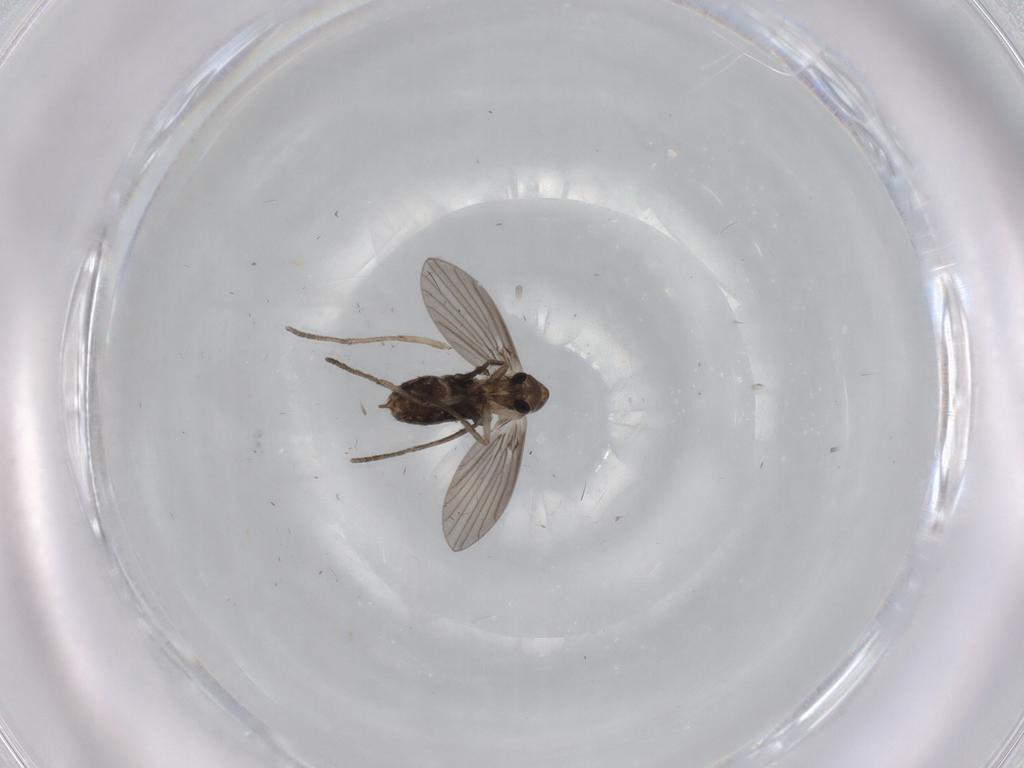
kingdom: Animalia
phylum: Arthropoda
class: Insecta
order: Diptera
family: Psychodidae
